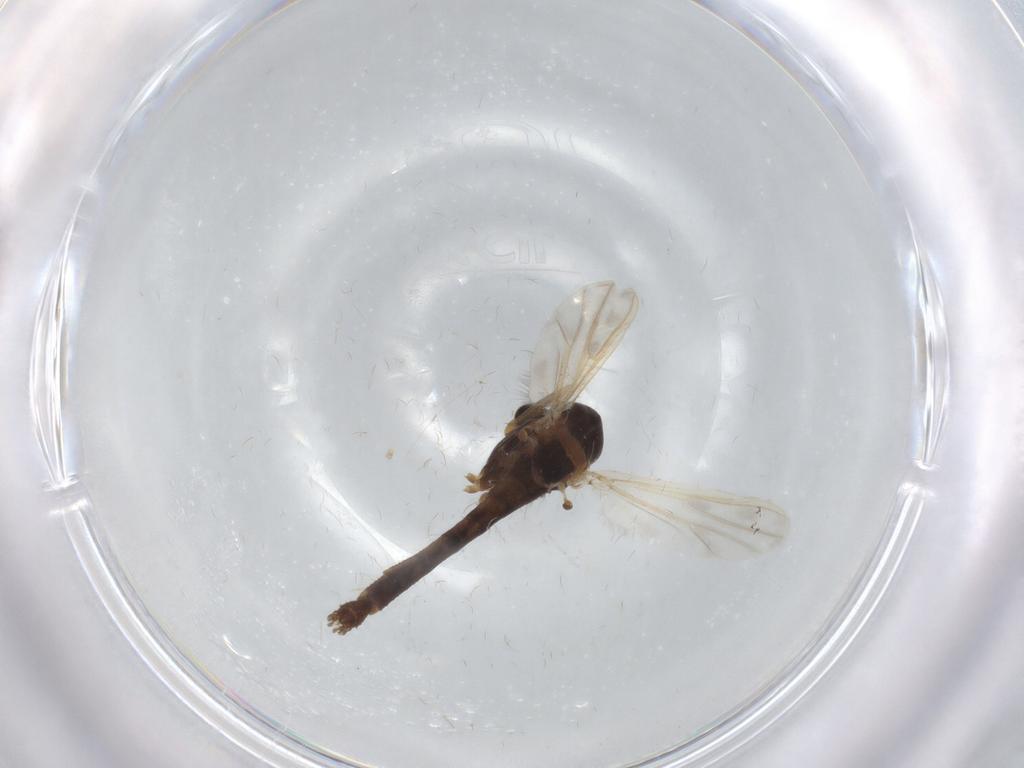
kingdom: Animalia
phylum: Arthropoda
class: Insecta
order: Diptera
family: Chironomidae
